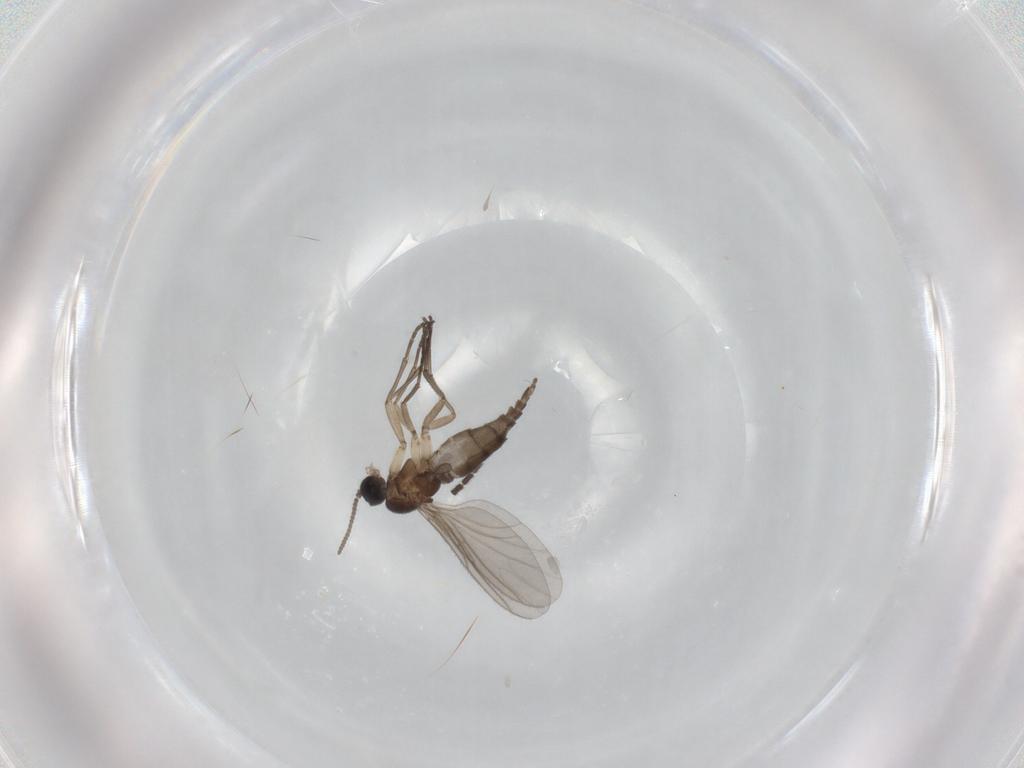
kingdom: Animalia
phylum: Arthropoda
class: Insecta
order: Diptera
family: Sciaridae
